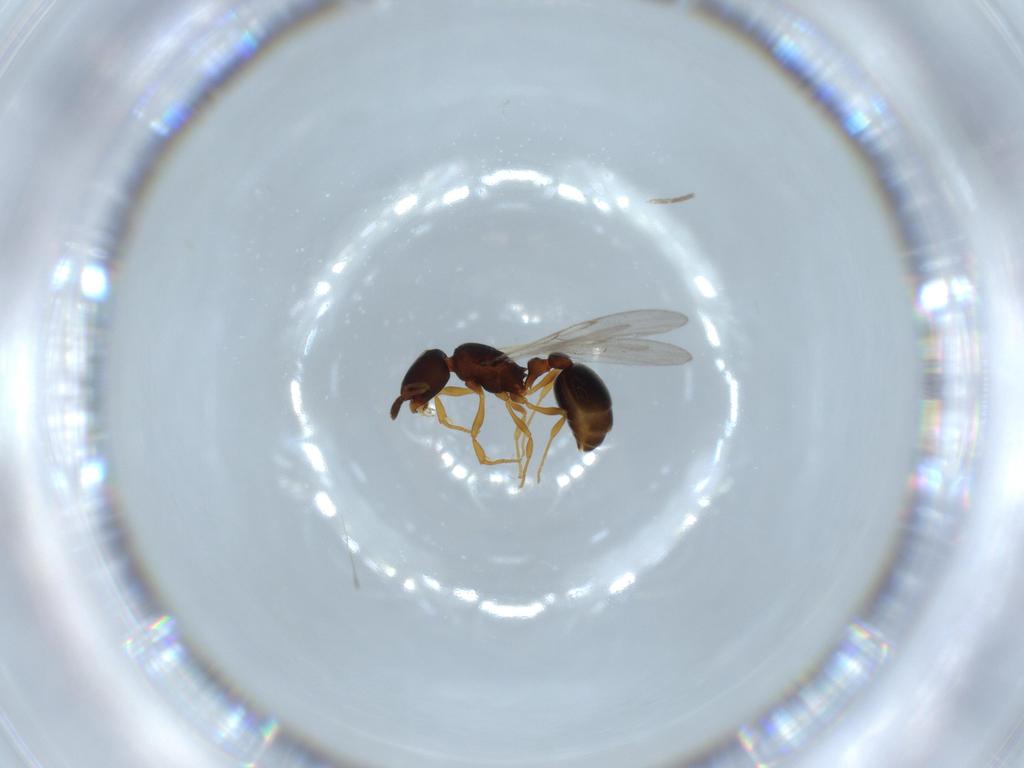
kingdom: Animalia
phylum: Arthropoda
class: Insecta
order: Hymenoptera
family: Formicidae
